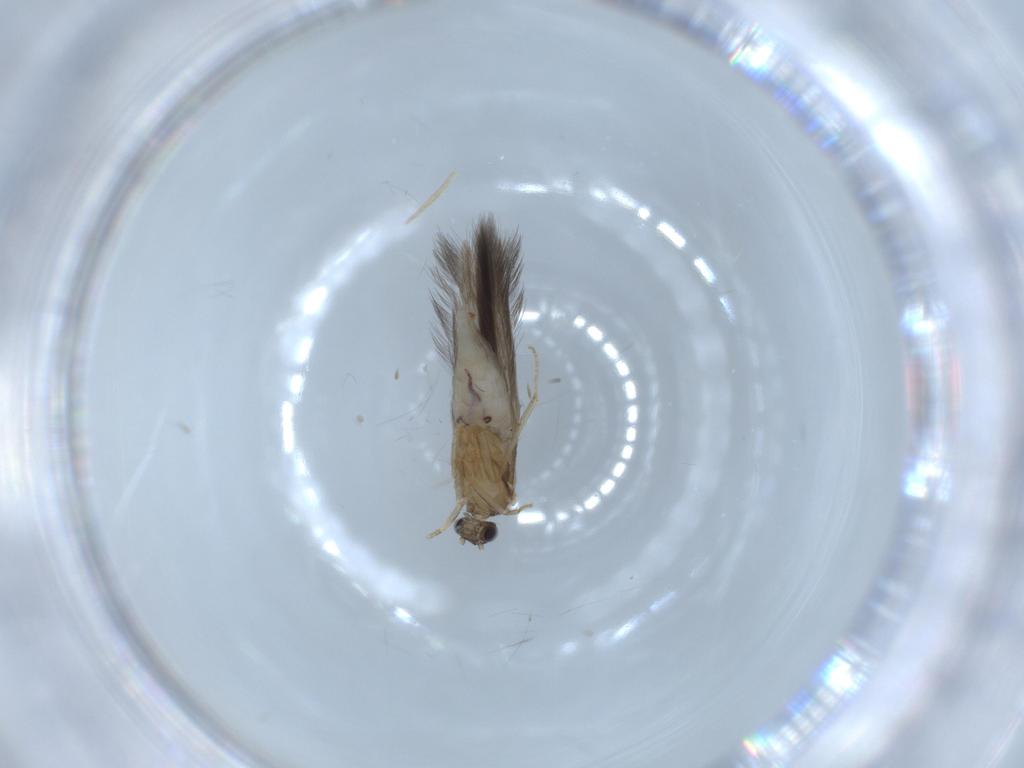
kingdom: Animalia
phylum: Arthropoda
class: Insecta
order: Trichoptera
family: Hydroptilidae
